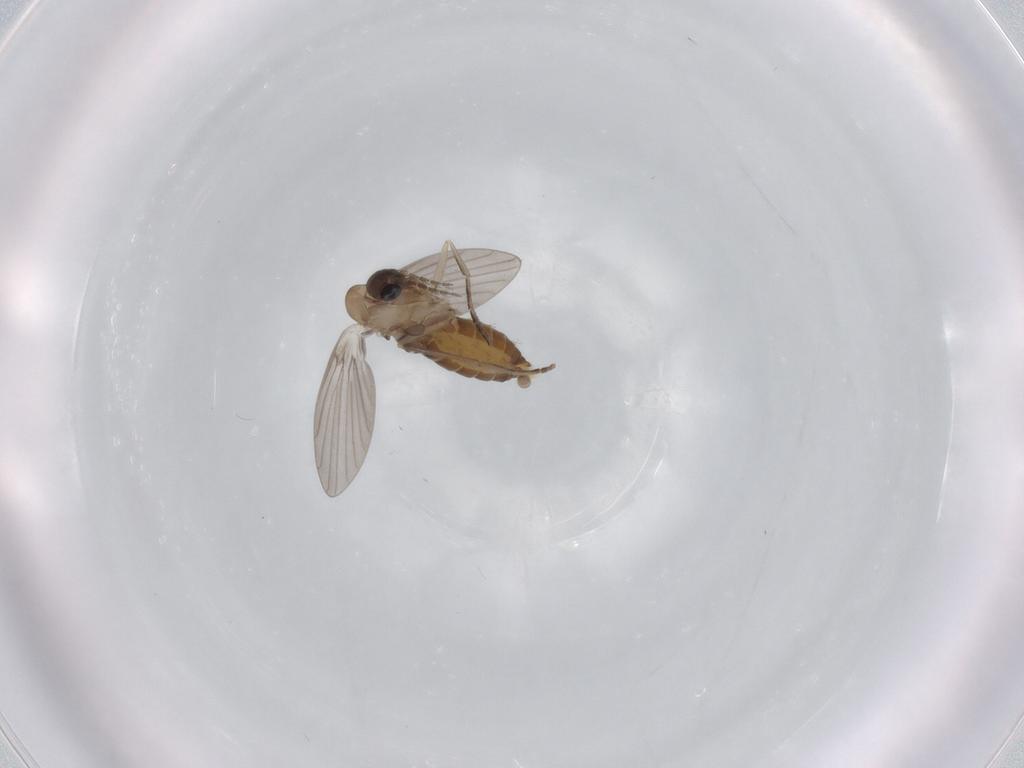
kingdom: Animalia
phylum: Arthropoda
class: Insecta
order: Diptera
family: Psychodidae
